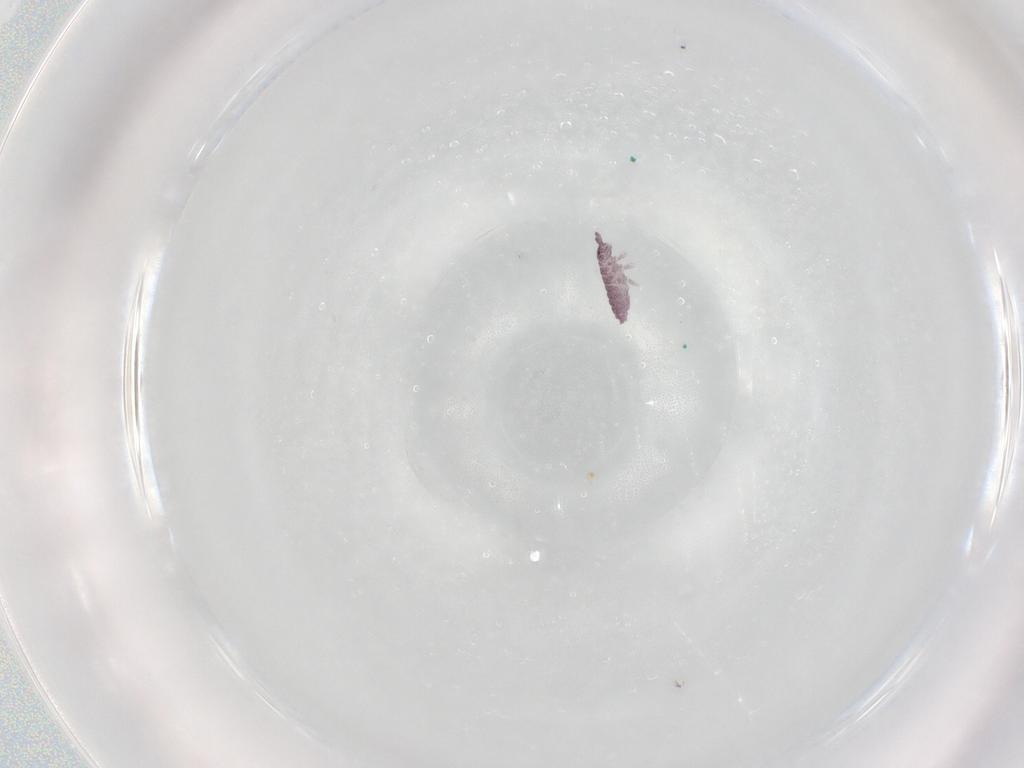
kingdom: Animalia
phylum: Arthropoda
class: Collembola
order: Poduromorpha
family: Hypogastruridae
